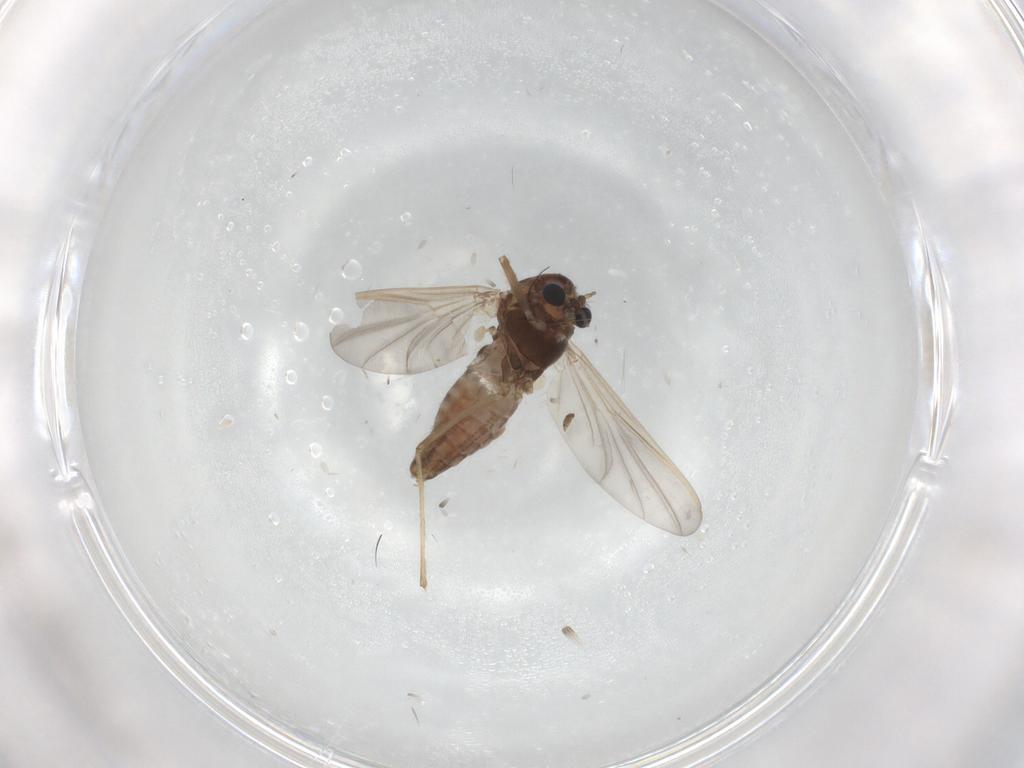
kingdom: Animalia
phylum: Arthropoda
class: Insecta
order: Diptera
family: Chironomidae
